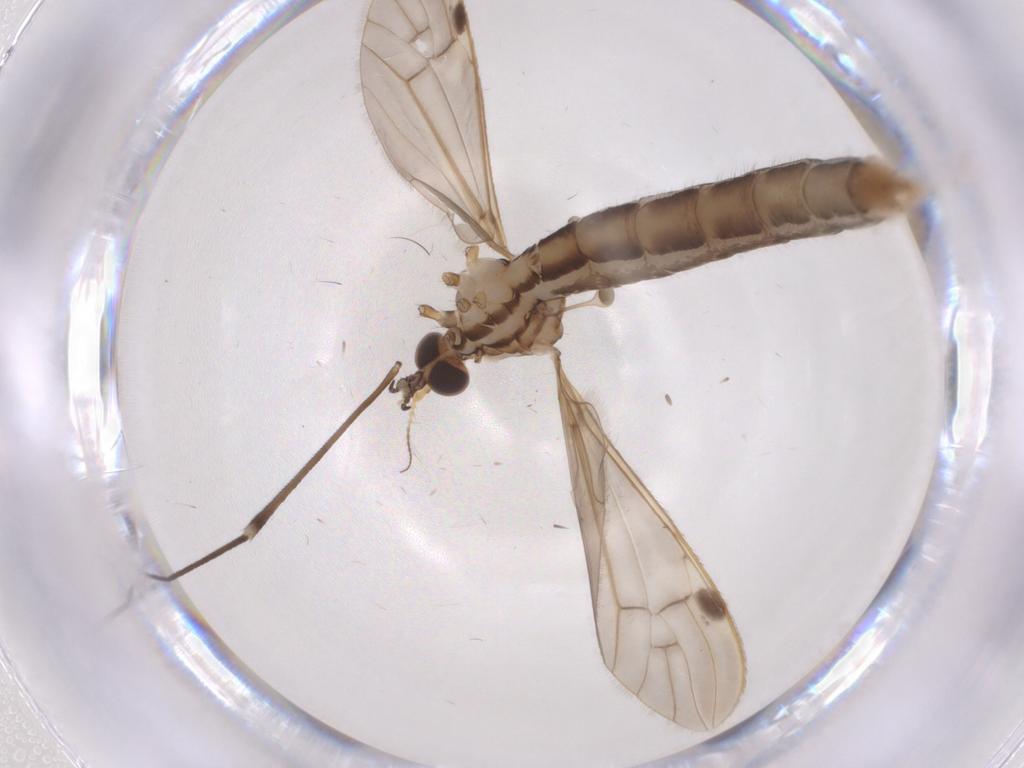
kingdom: Animalia
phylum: Arthropoda
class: Insecta
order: Diptera
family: Limoniidae
